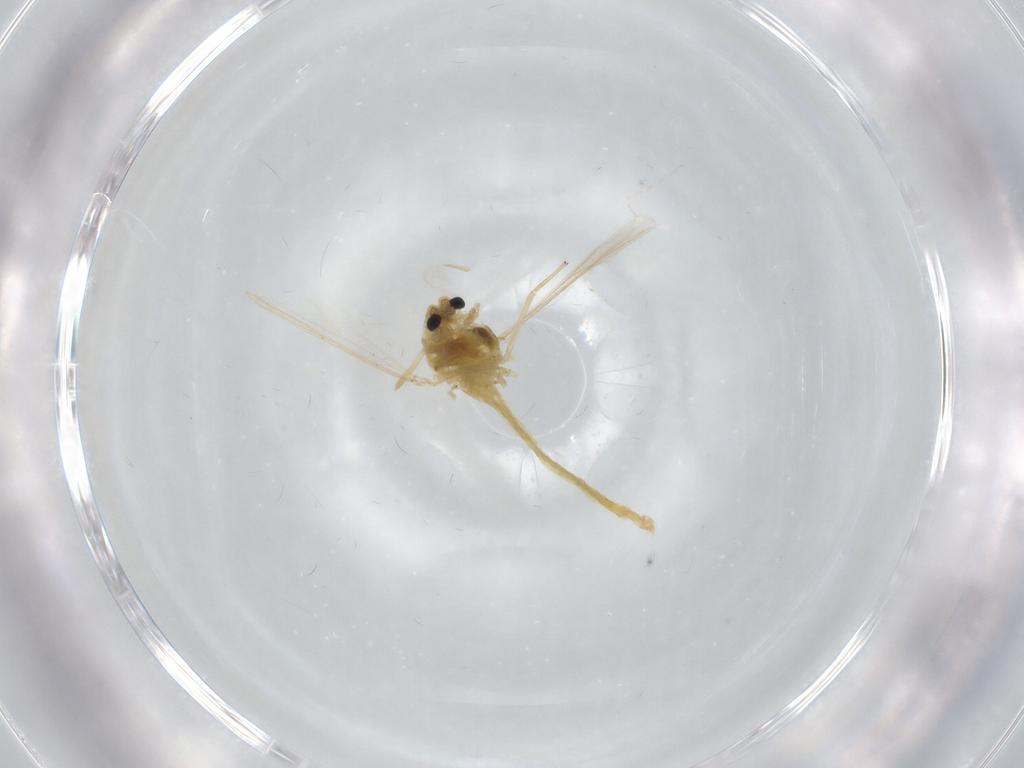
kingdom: Animalia
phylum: Arthropoda
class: Insecta
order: Diptera
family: Chironomidae
